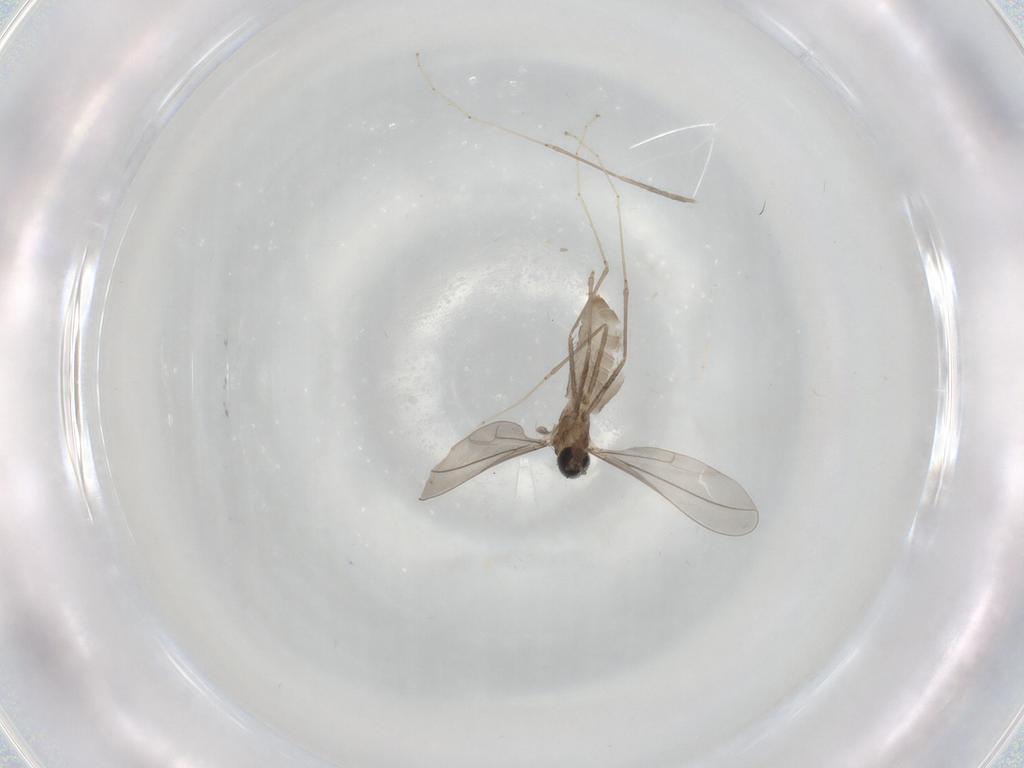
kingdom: Animalia
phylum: Arthropoda
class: Insecta
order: Diptera
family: Cecidomyiidae
